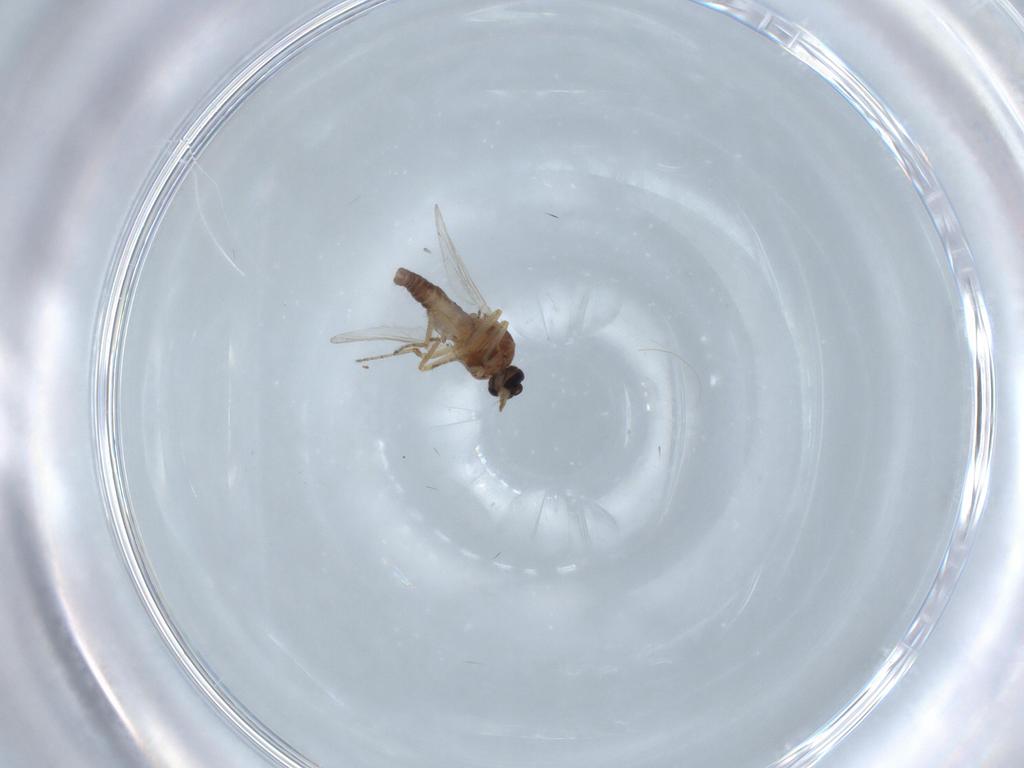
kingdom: Animalia
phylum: Arthropoda
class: Insecta
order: Diptera
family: Ceratopogonidae
